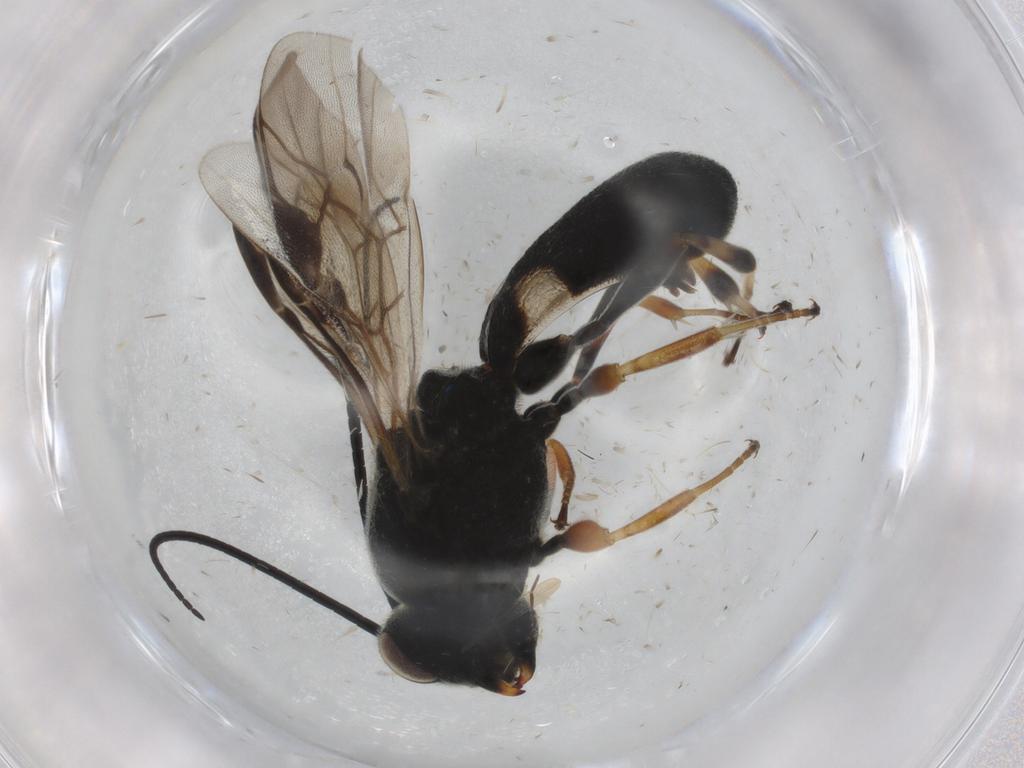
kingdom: Animalia
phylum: Arthropoda
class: Insecta
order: Hymenoptera
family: Braconidae
